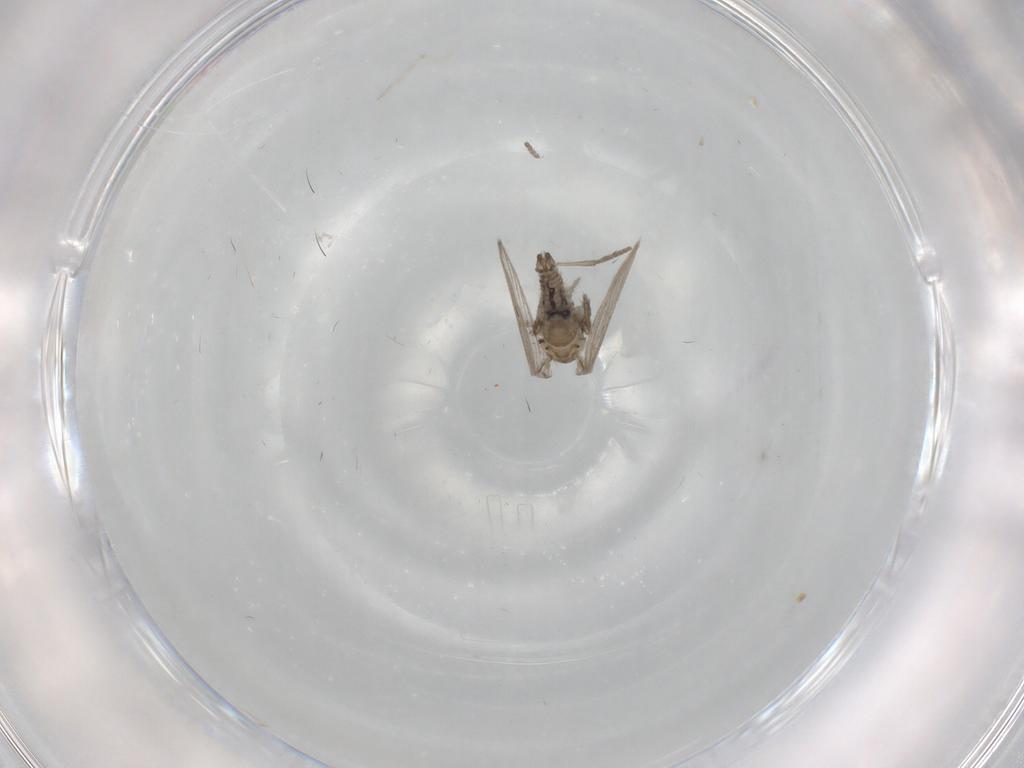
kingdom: Animalia
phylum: Arthropoda
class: Insecta
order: Diptera
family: Psychodidae
